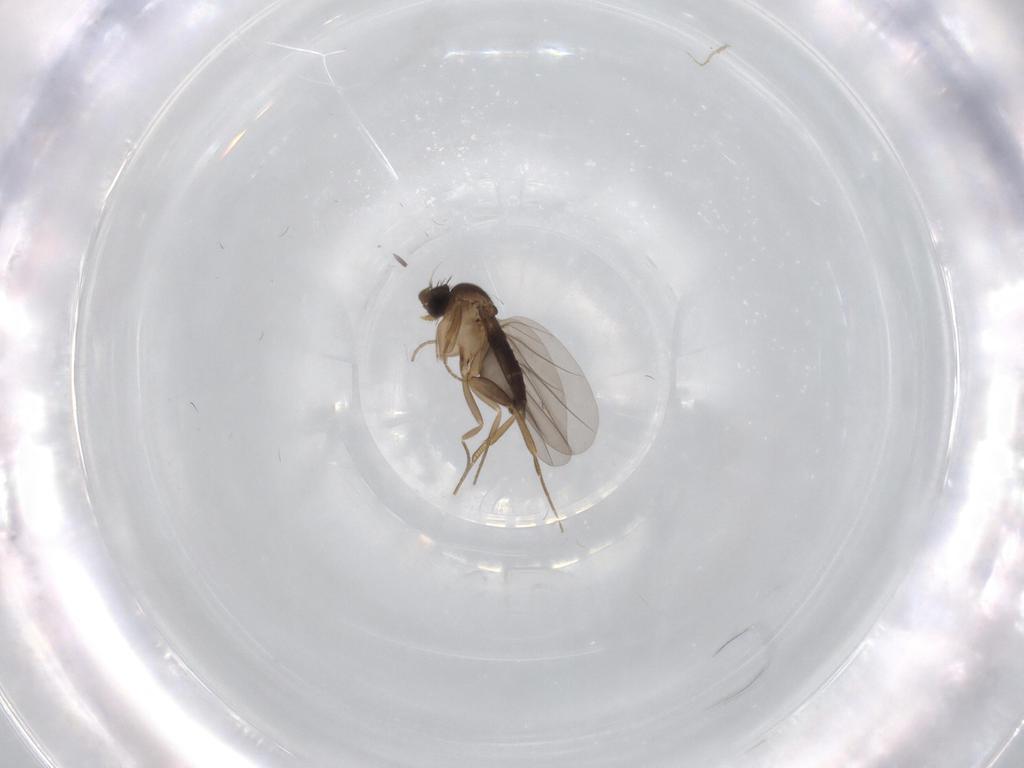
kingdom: Animalia
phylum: Arthropoda
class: Insecta
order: Diptera
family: Phoridae
